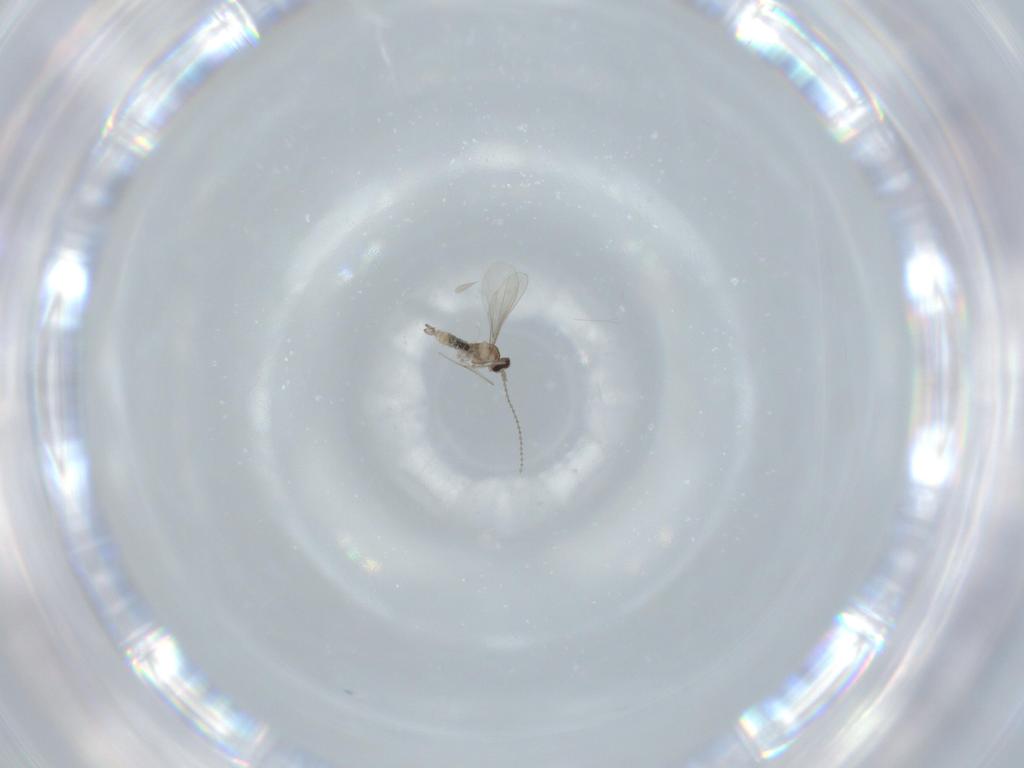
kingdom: Animalia
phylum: Arthropoda
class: Insecta
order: Diptera
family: Cecidomyiidae
